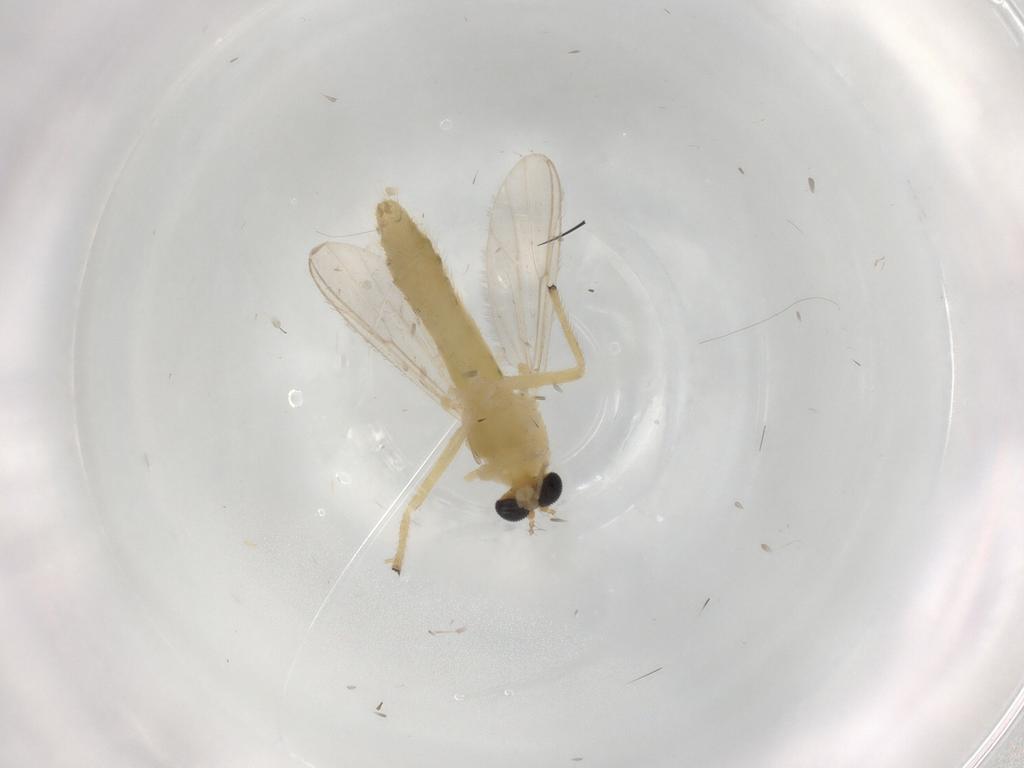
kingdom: Animalia
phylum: Arthropoda
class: Insecta
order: Diptera
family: Chironomidae
